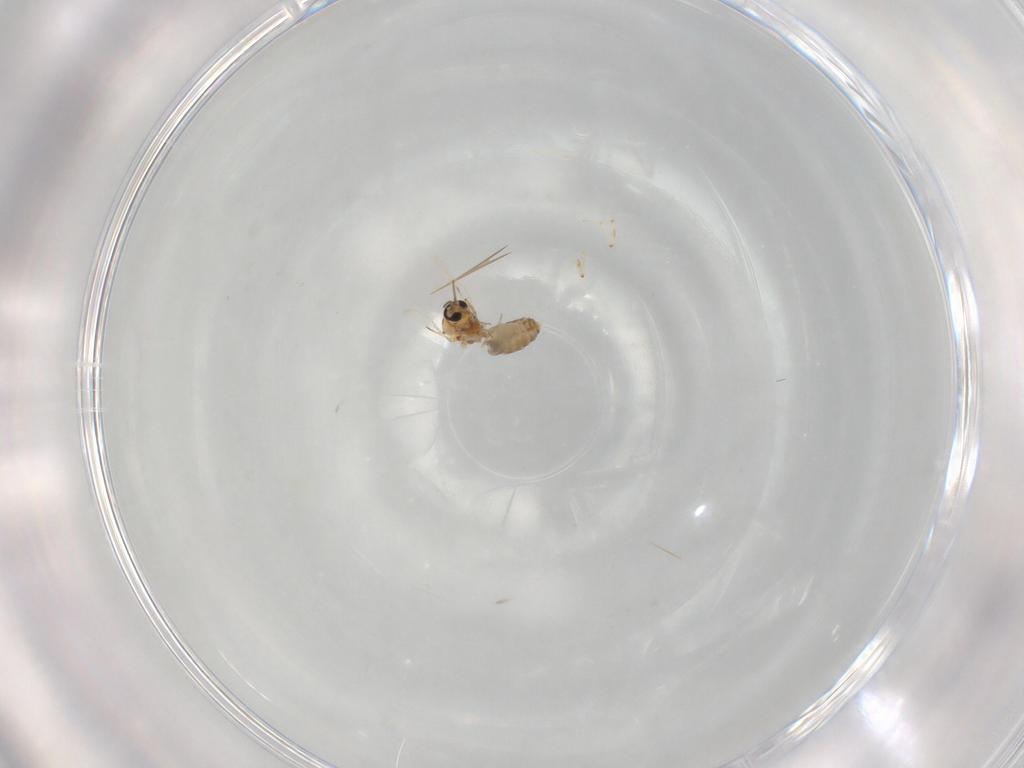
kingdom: Animalia
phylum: Arthropoda
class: Insecta
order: Diptera
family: Chironomidae
